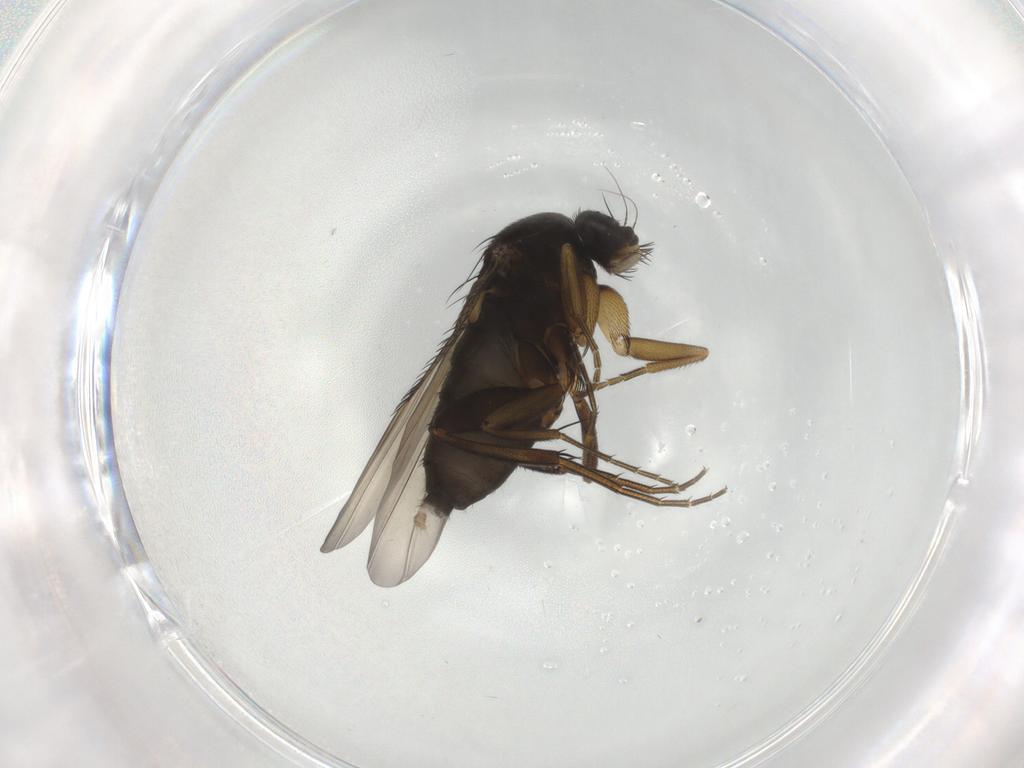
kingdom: Animalia
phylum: Arthropoda
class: Insecta
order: Diptera
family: Phoridae
